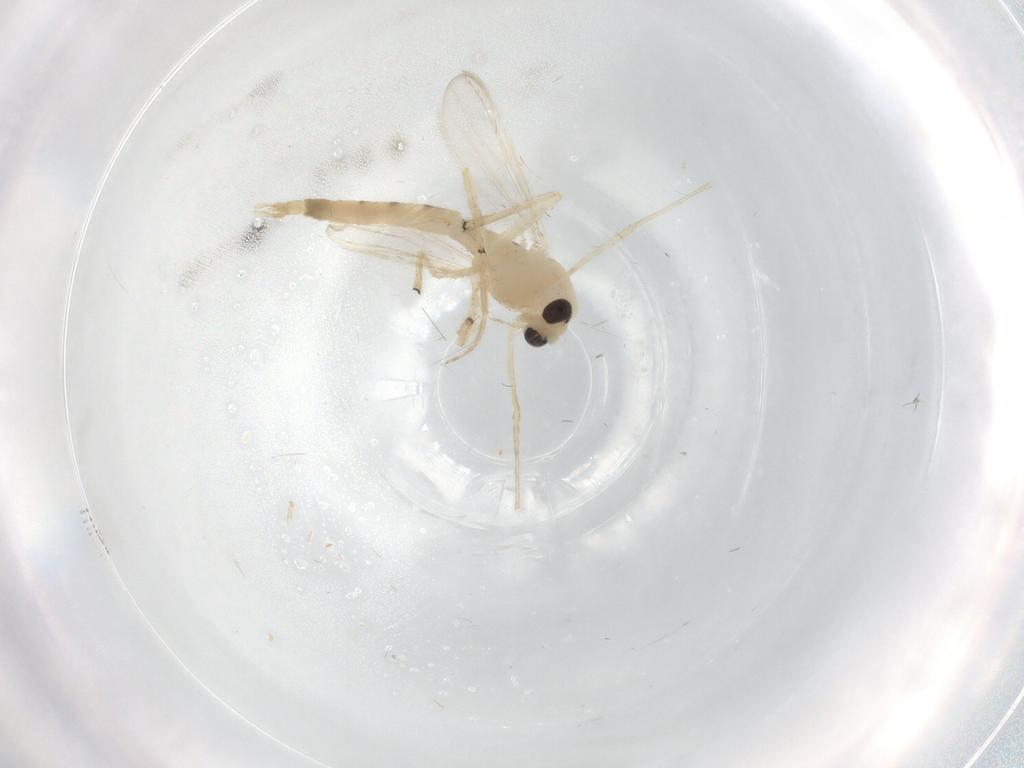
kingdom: Animalia
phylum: Arthropoda
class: Insecta
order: Diptera
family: Chironomidae
